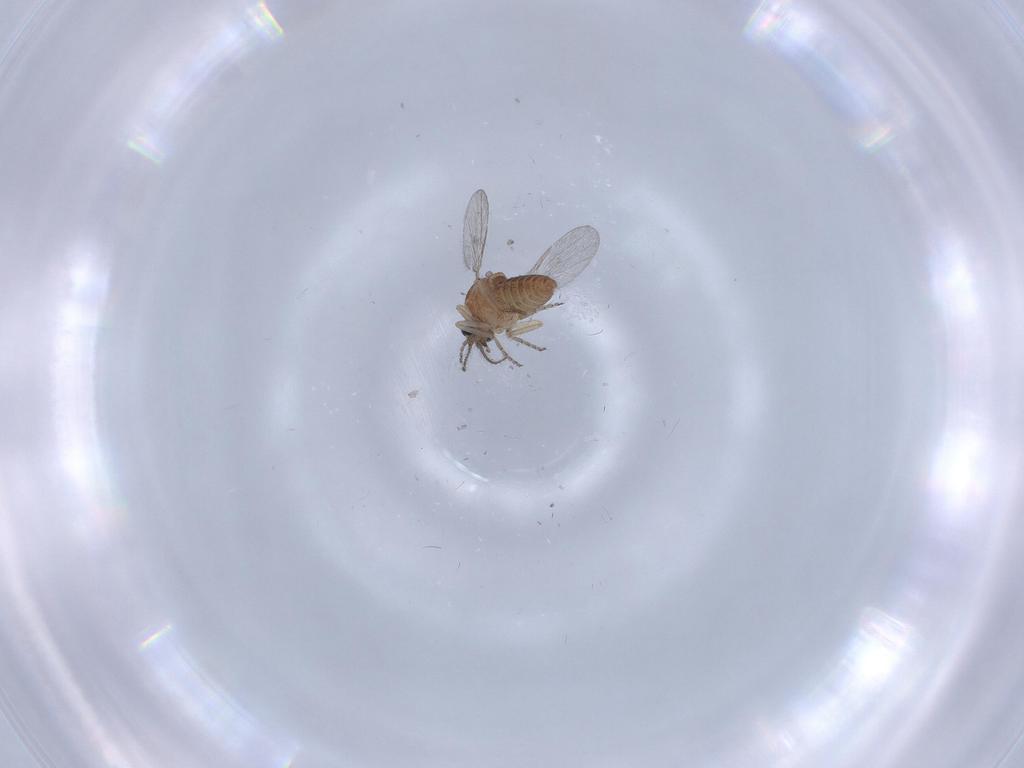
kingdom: Animalia
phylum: Arthropoda
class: Insecta
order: Diptera
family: Ceratopogonidae
